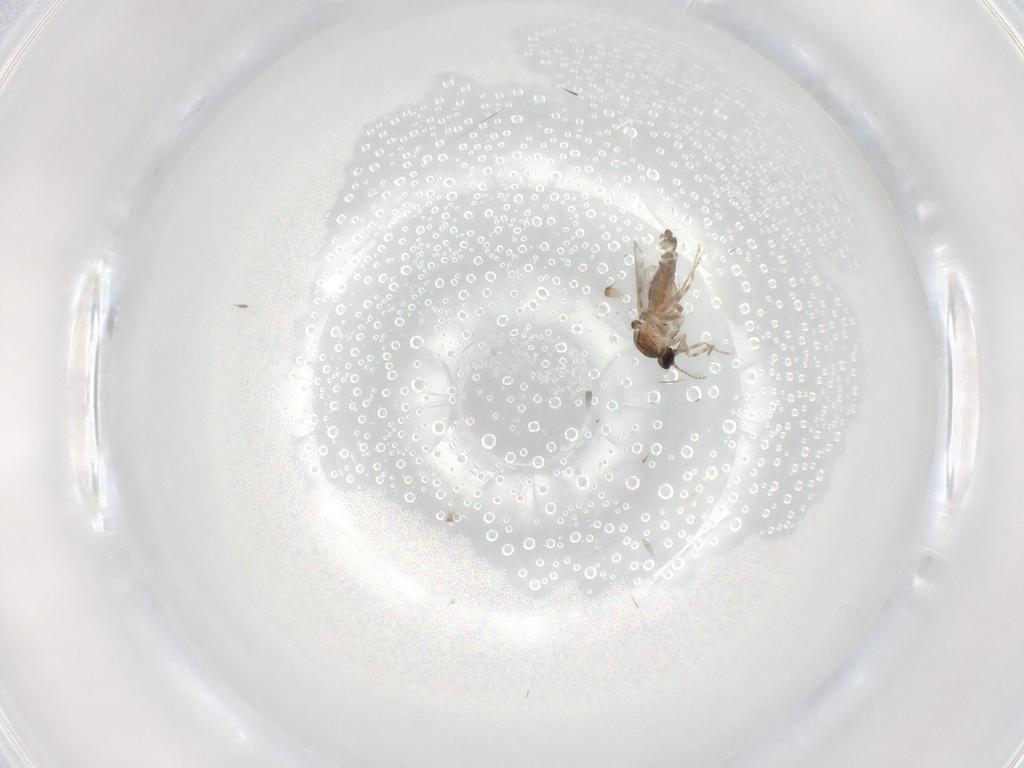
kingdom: Animalia
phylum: Arthropoda
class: Insecta
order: Diptera
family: Ceratopogonidae
